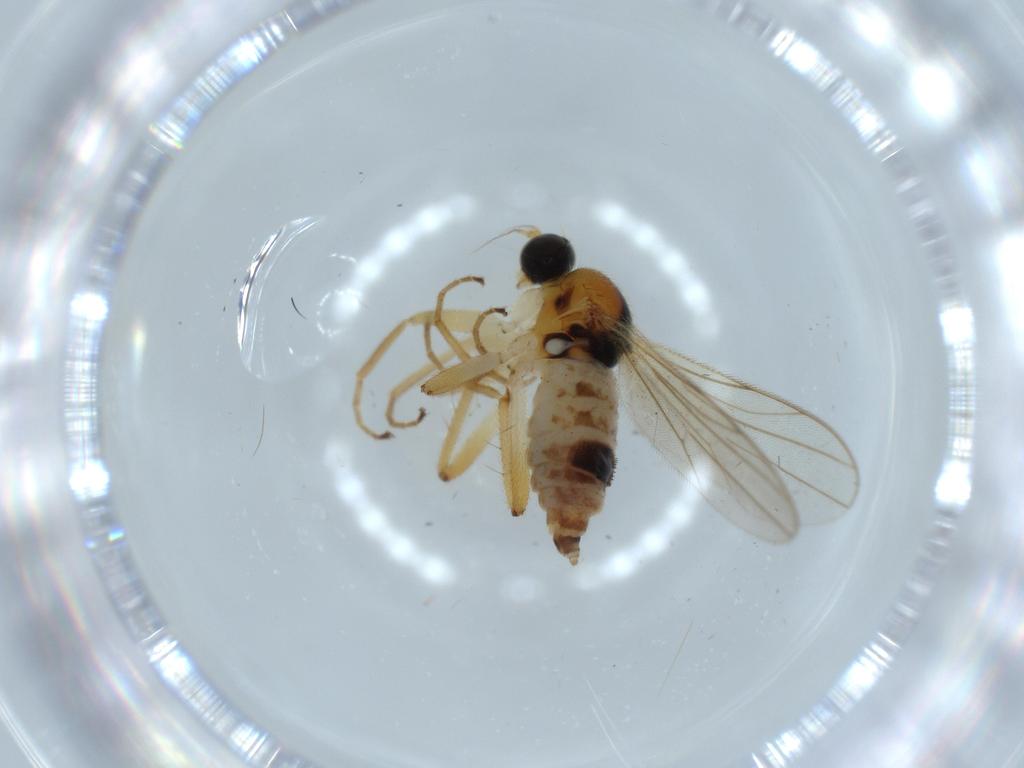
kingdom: Animalia
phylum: Arthropoda
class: Insecta
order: Diptera
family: Hybotidae
